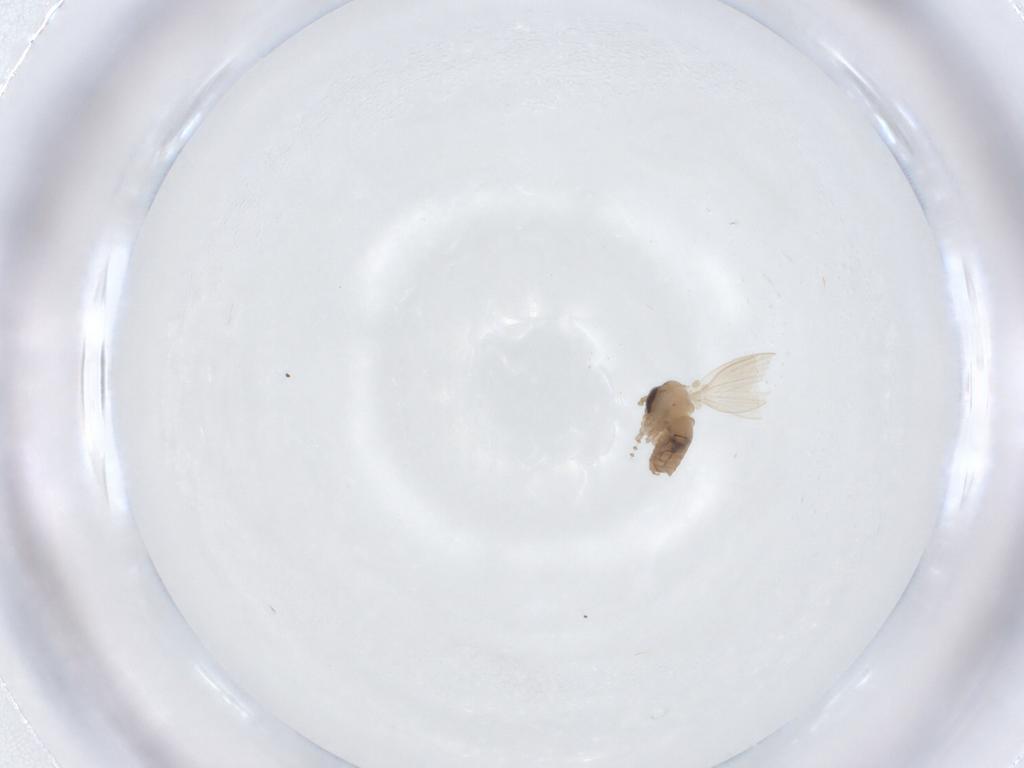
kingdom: Animalia
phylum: Arthropoda
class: Insecta
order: Diptera
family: Psychodidae
